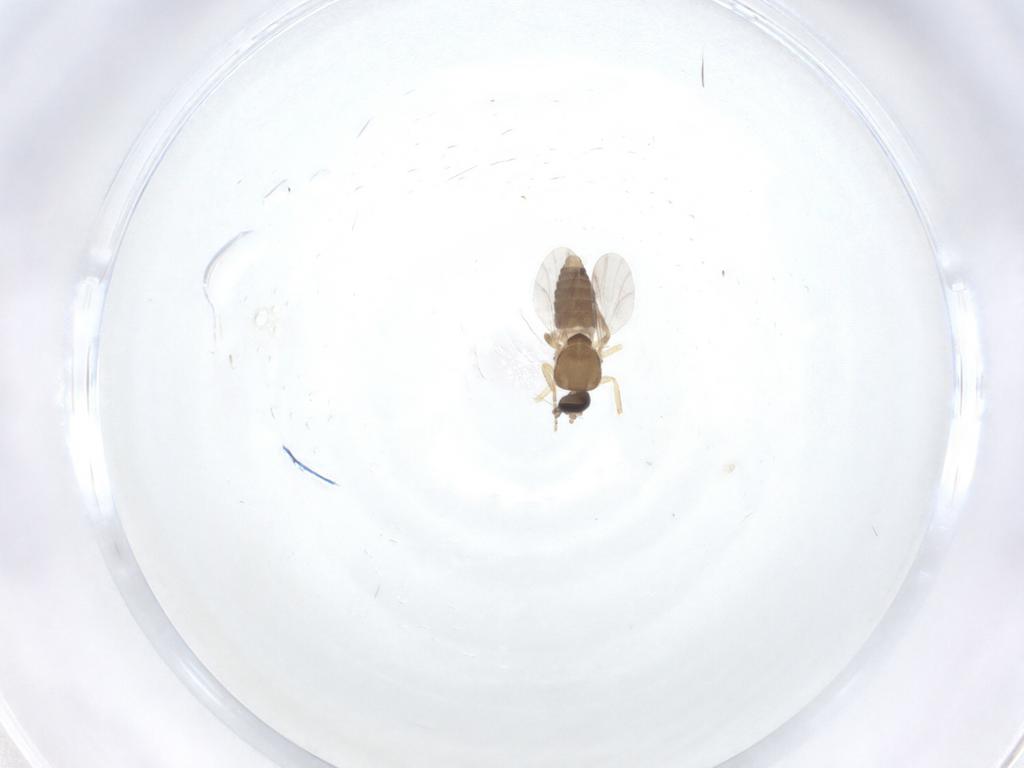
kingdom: Animalia
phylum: Arthropoda
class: Insecta
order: Diptera
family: Ceratopogonidae
